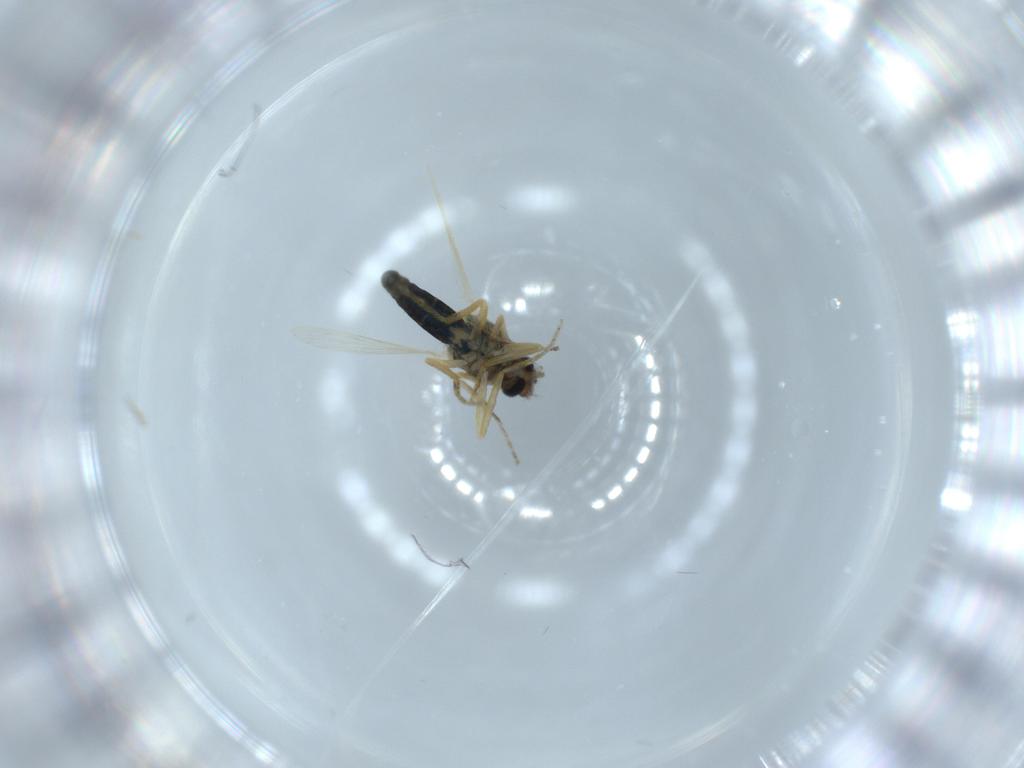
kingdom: Animalia
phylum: Arthropoda
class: Insecta
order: Diptera
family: Ceratopogonidae
